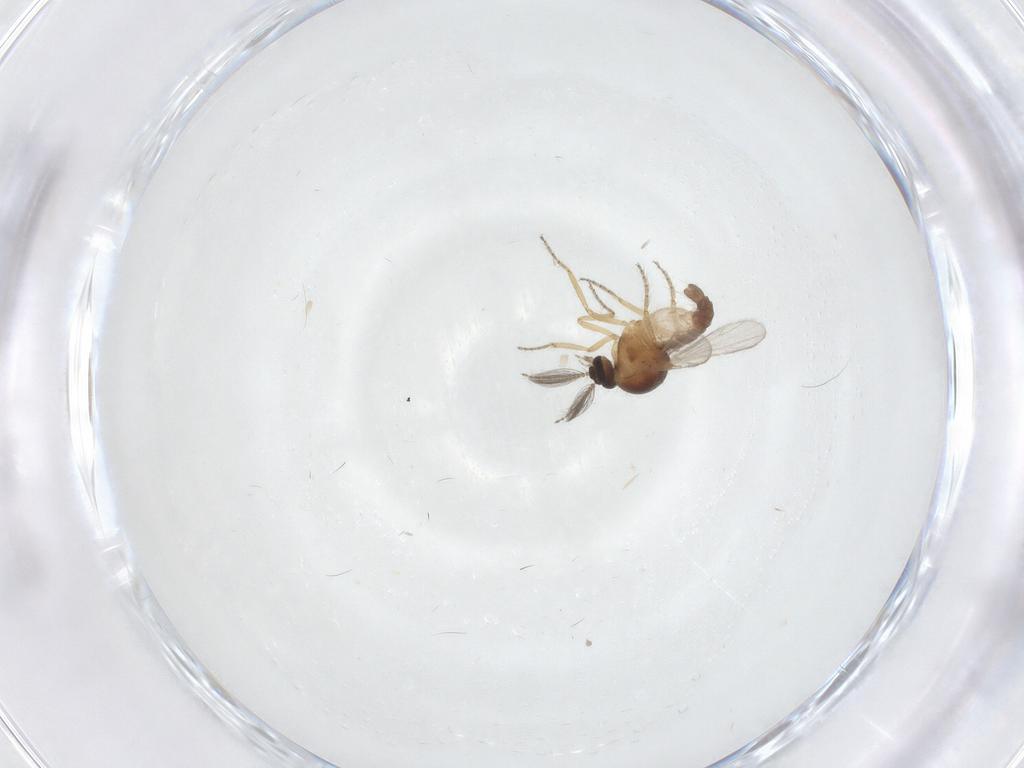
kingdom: Animalia
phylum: Arthropoda
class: Insecta
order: Diptera
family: Ceratopogonidae
